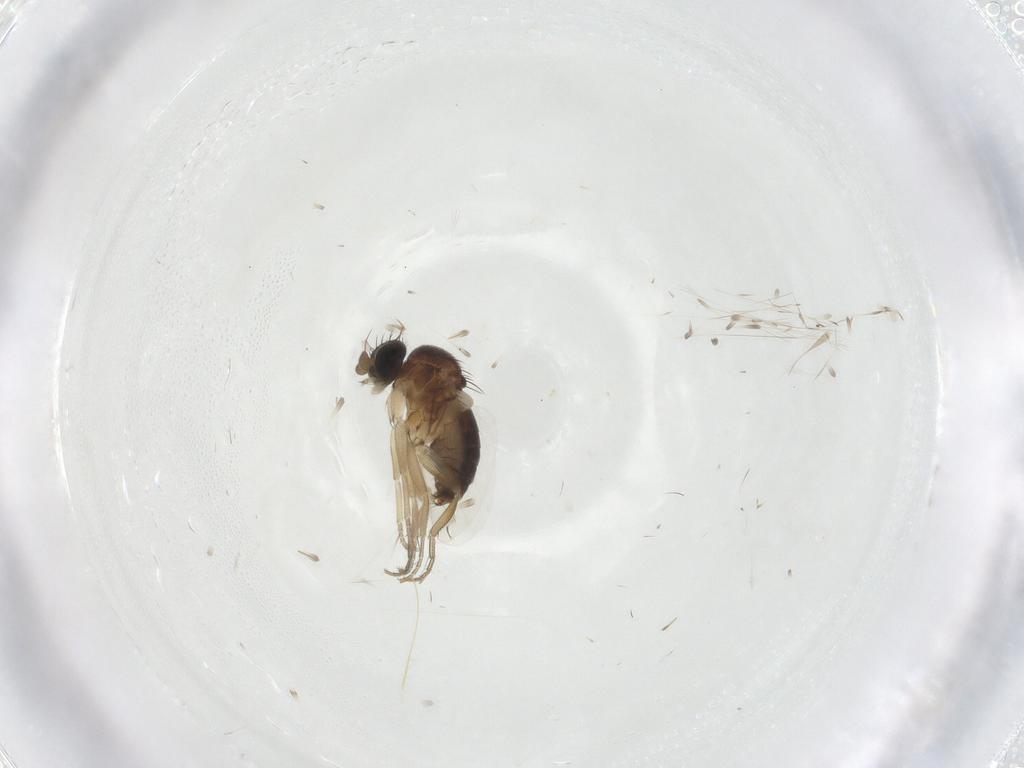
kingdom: Animalia
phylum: Arthropoda
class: Insecta
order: Diptera
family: Phoridae
